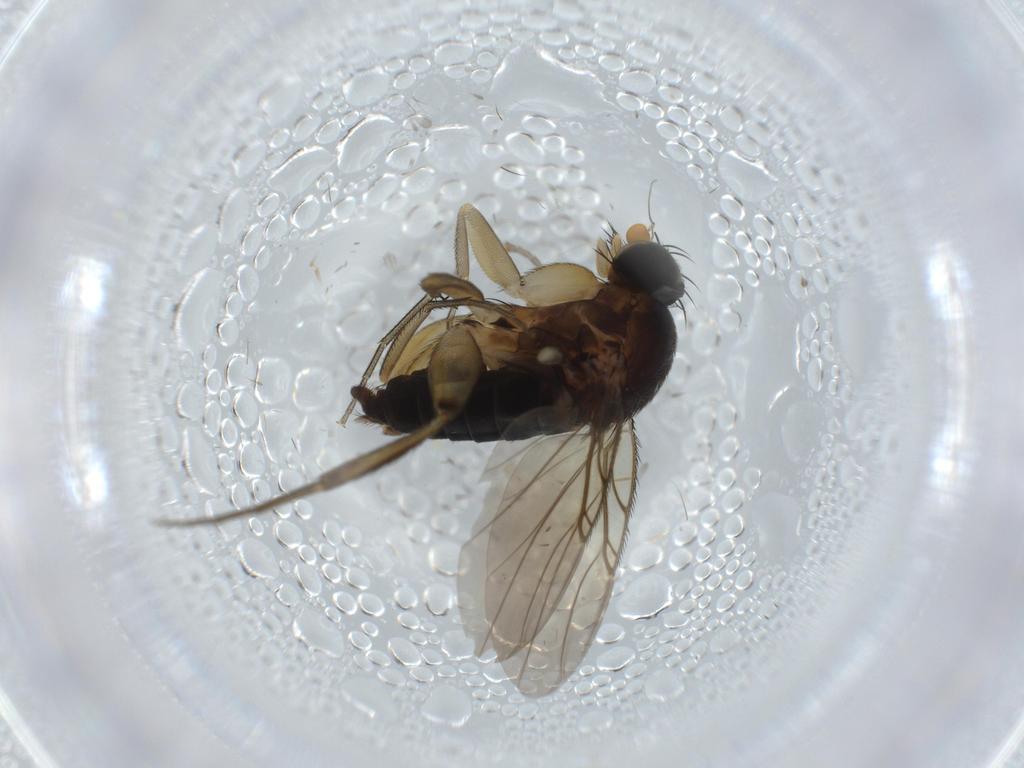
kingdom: Animalia
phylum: Arthropoda
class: Insecta
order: Diptera
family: Phoridae
